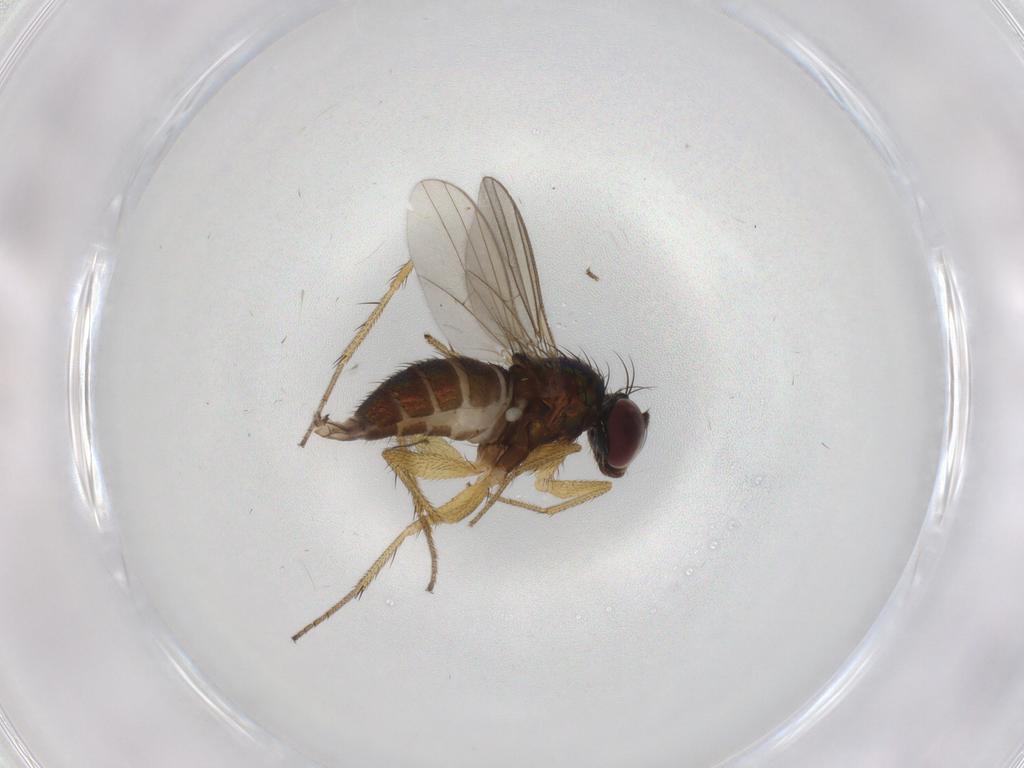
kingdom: Animalia
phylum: Arthropoda
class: Insecta
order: Diptera
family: Dolichopodidae
